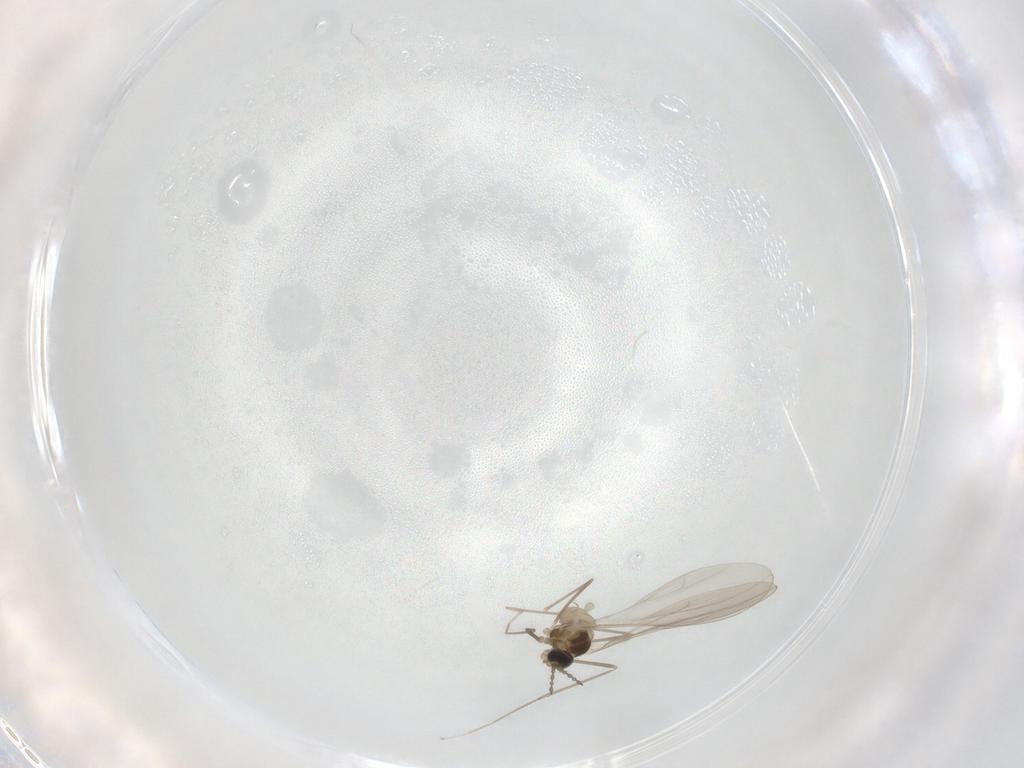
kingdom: Animalia
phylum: Arthropoda
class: Insecta
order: Diptera
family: Ceratopogonidae
